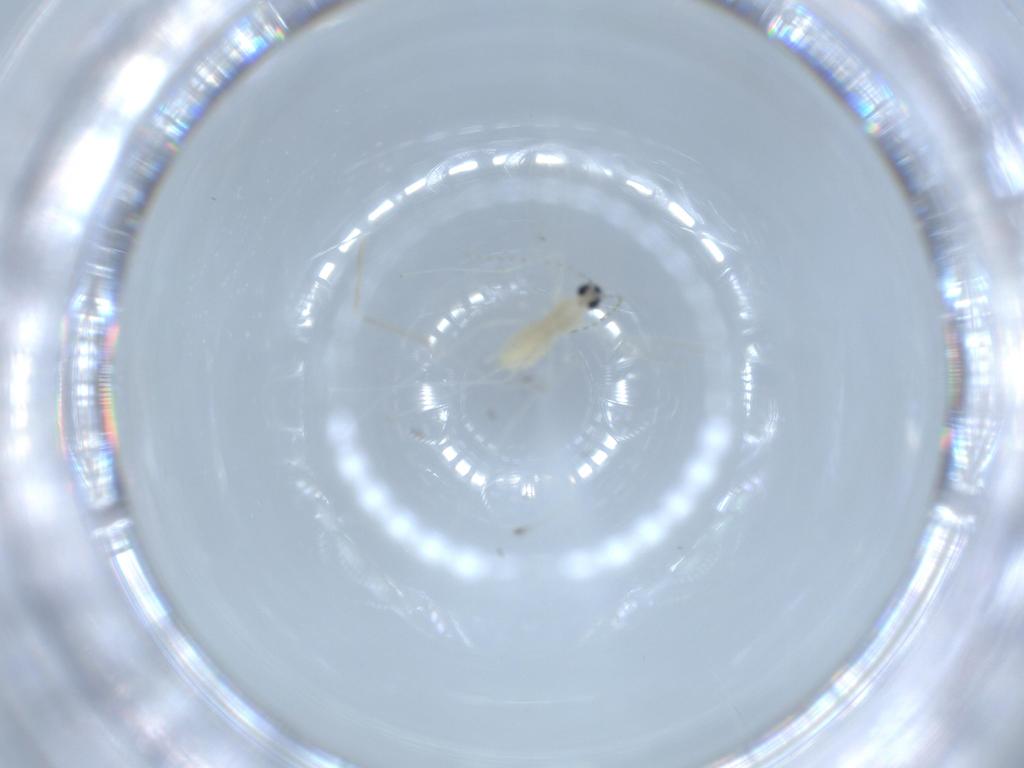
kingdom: Animalia
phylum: Arthropoda
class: Insecta
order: Diptera
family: Cecidomyiidae
